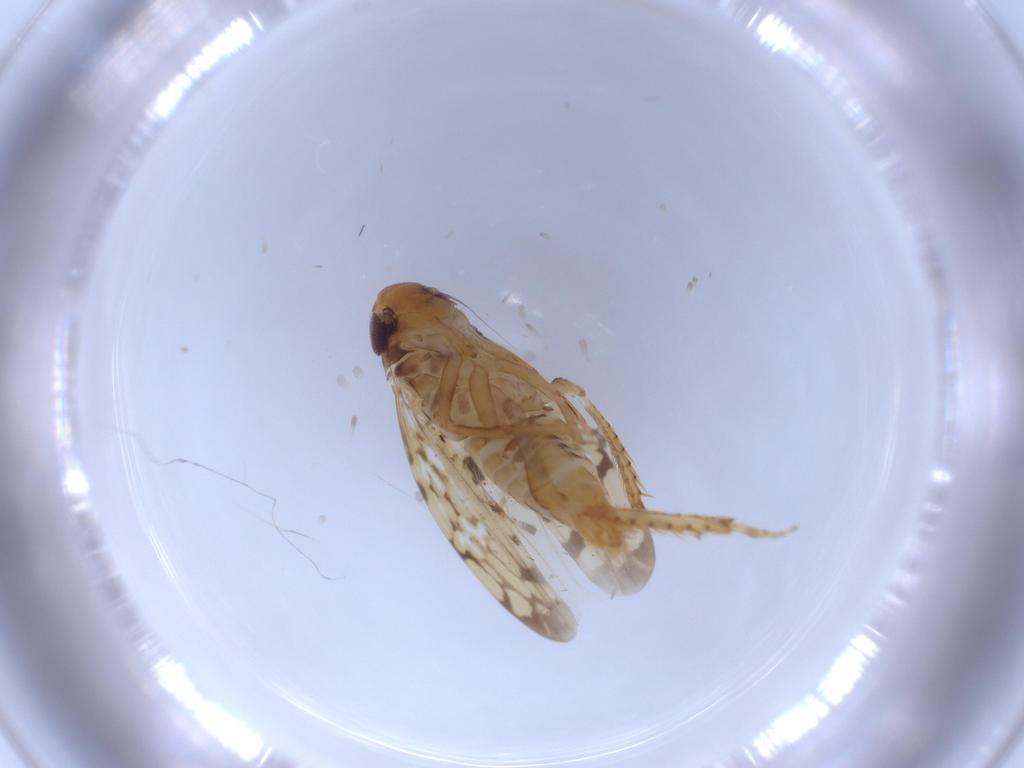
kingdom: Animalia
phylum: Arthropoda
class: Insecta
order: Hemiptera
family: Cicadellidae
